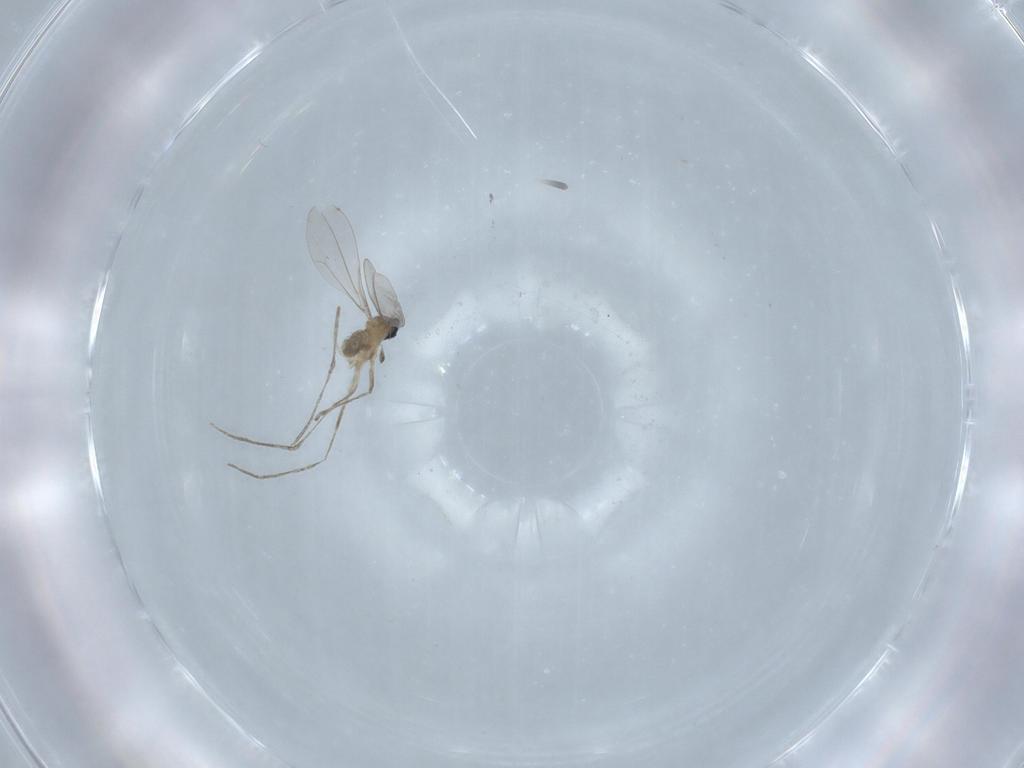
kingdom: Animalia
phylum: Arthropoda
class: Insecta
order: Diptera
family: Cecidomyiidae
